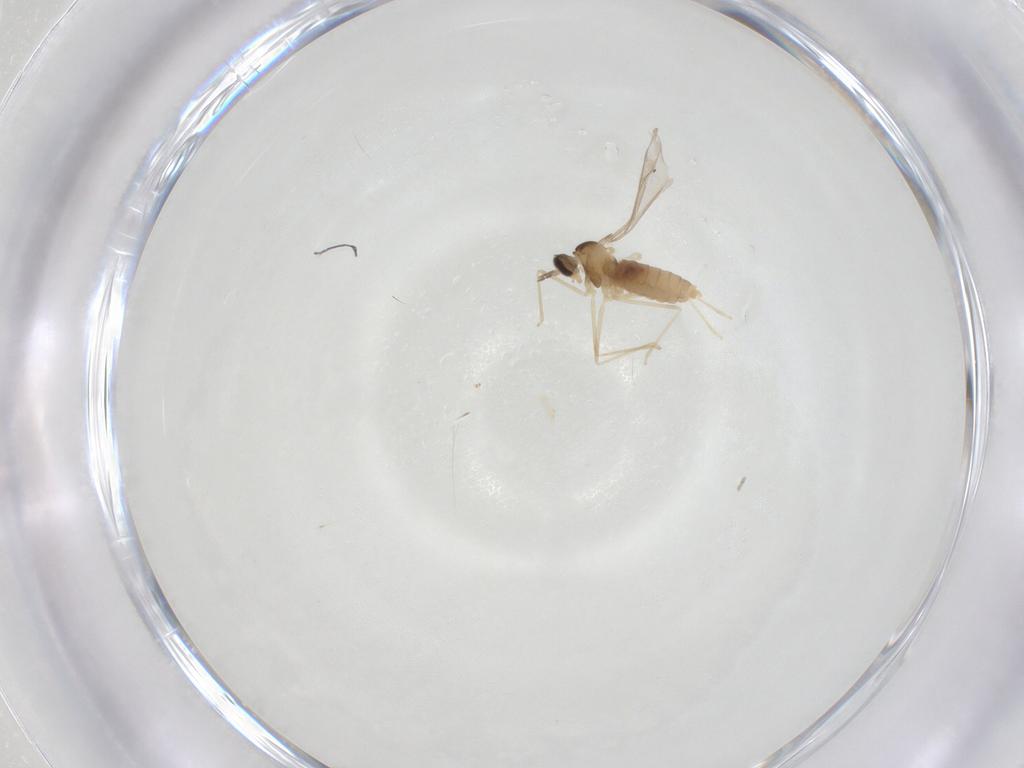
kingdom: Animalia
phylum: Arthropoda
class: Insecta
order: Diptera
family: Cecidomyiidae
